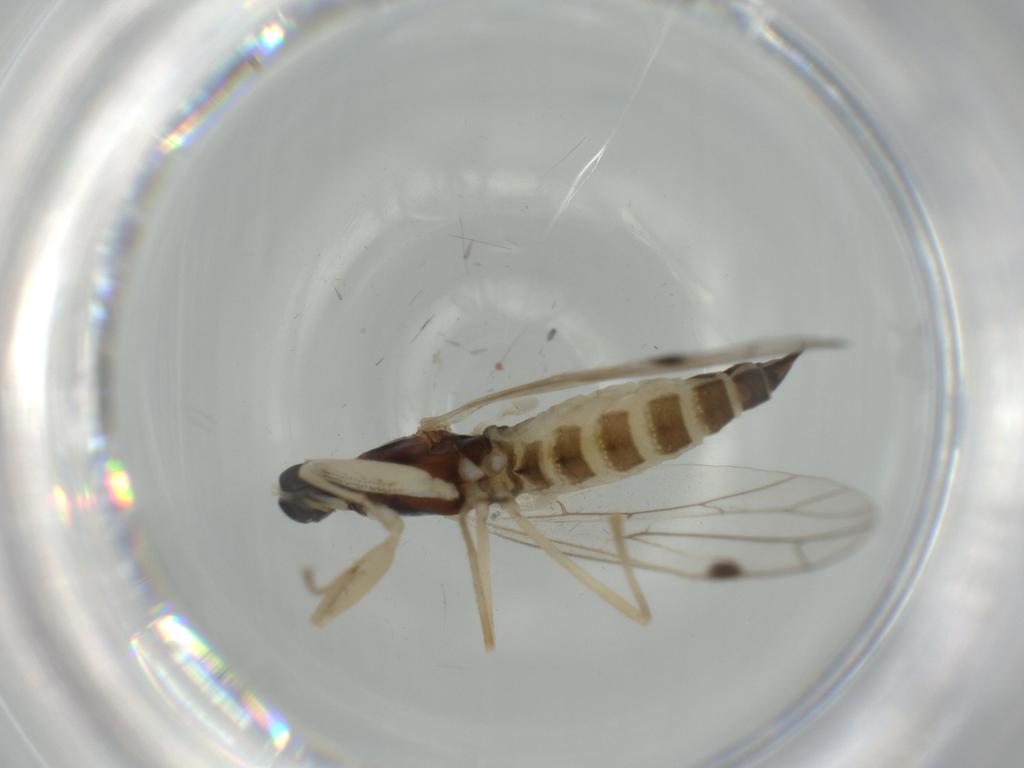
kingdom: Animalia
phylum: Arthropoda
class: Insecta
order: Diptera
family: Empididae
